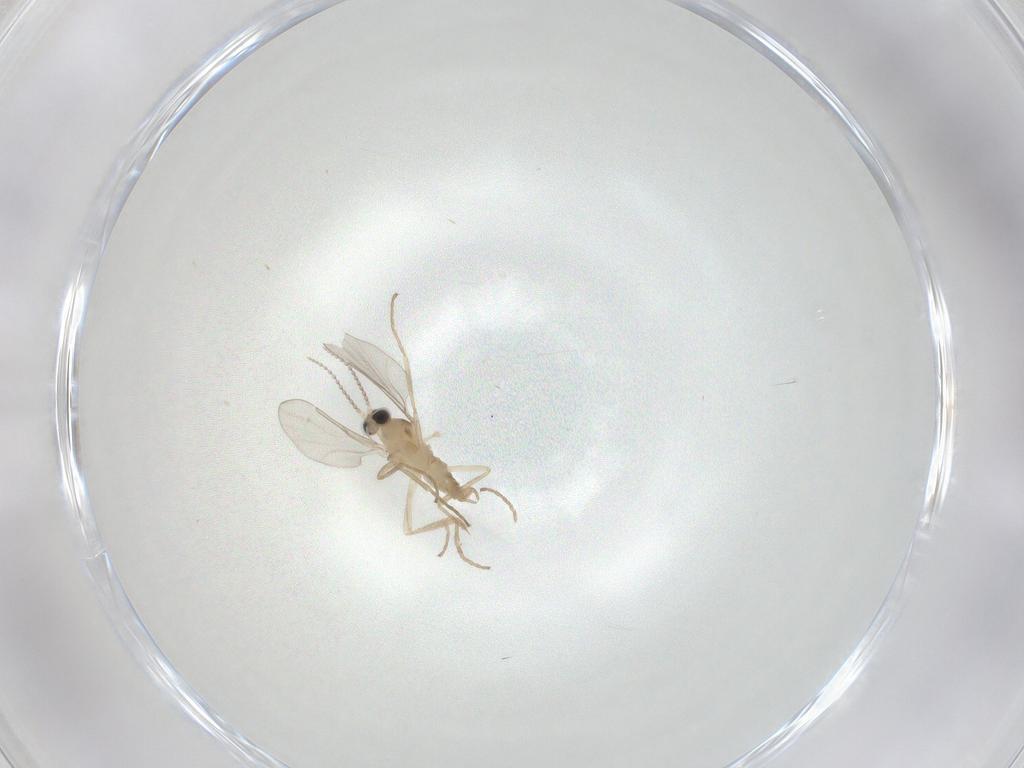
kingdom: Animalia
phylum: Arthropoda
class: Insecta
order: Diptera
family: Cecidomyiidae
